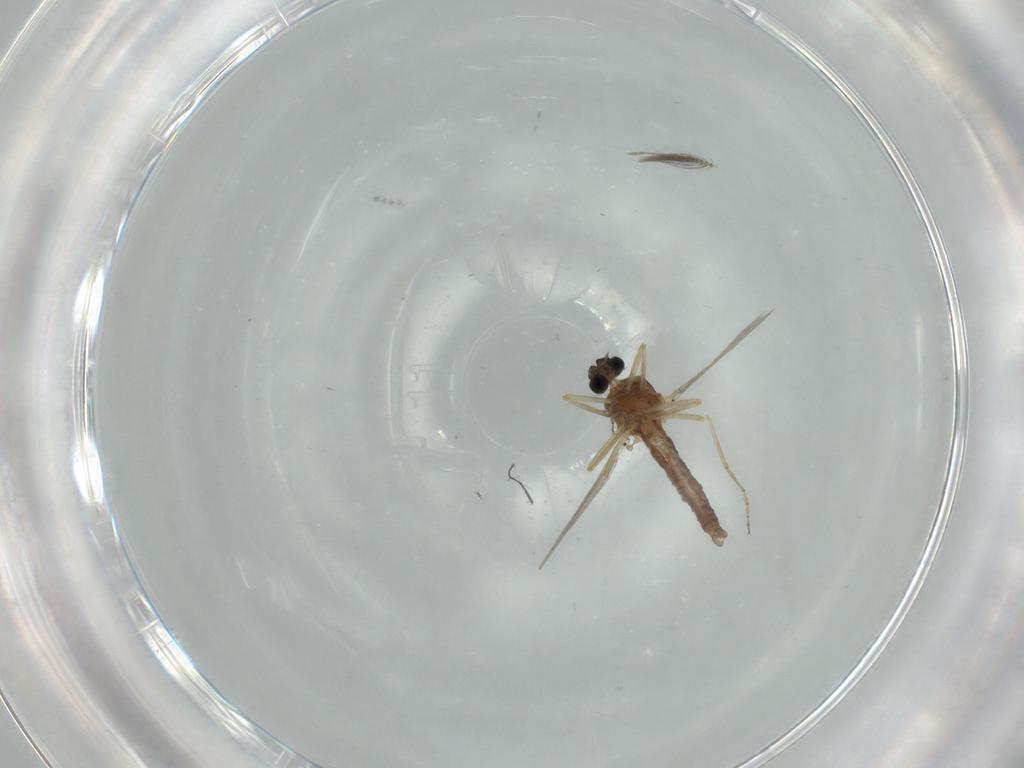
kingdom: Animalia
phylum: Arthropoda
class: Insecta
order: Diptera
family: Ceratopogonidae
